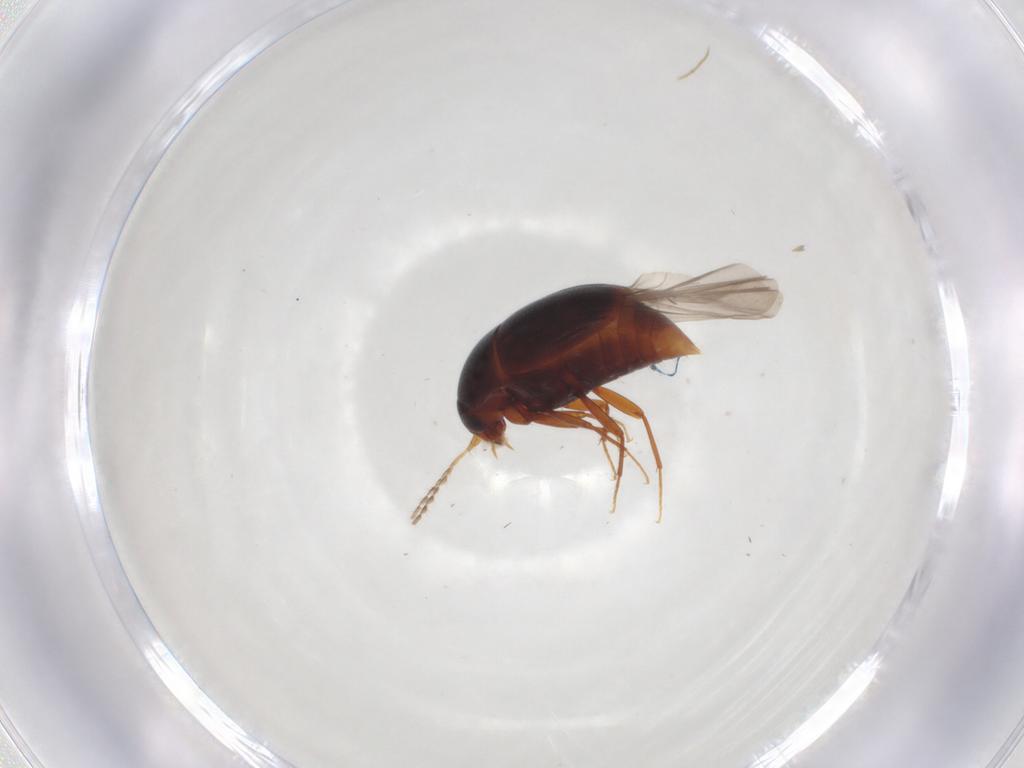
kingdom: Animalia
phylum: Arthropoda
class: Insecta
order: Coleoptera
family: Staphylinidae
